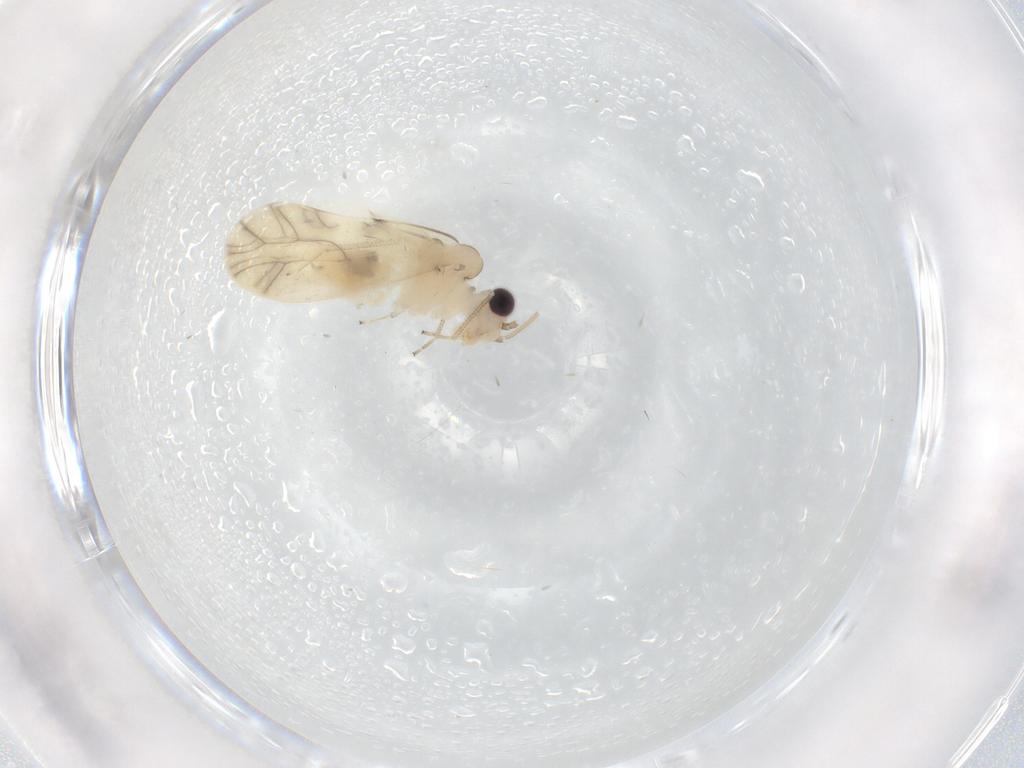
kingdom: Animalia
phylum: Arthropoda
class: Insecta
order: Psocodea
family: Caeciliusidae
